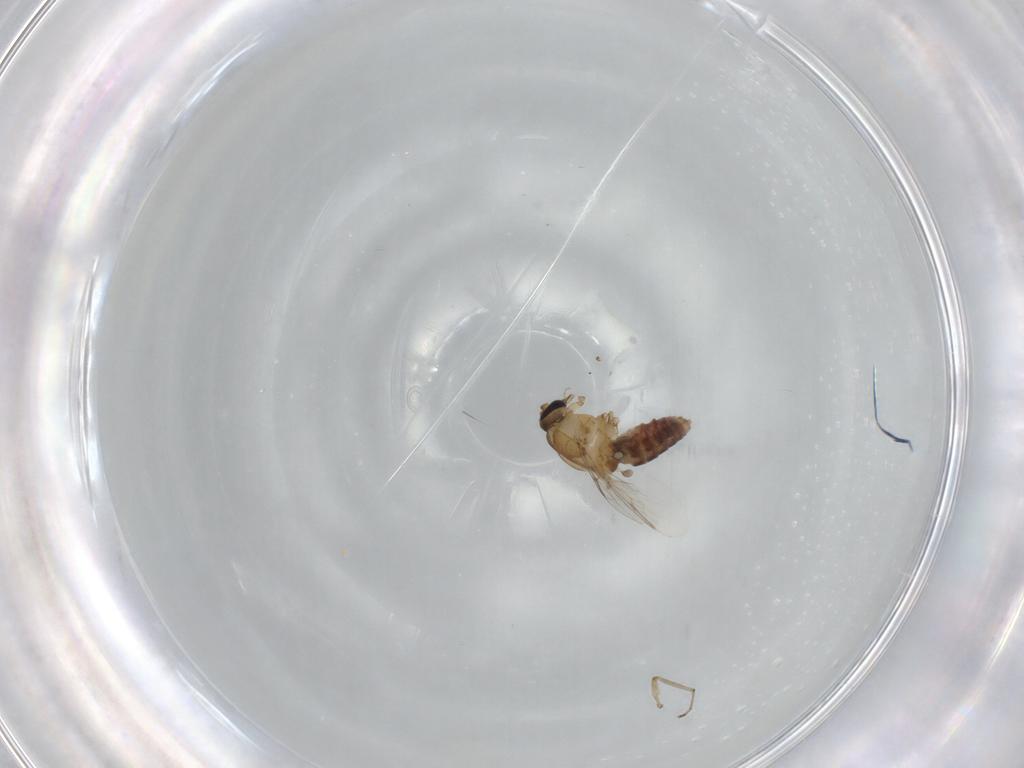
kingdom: Animalia
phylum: Arthropoda
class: Insecta
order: Diptera
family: Ceratopogonidae
